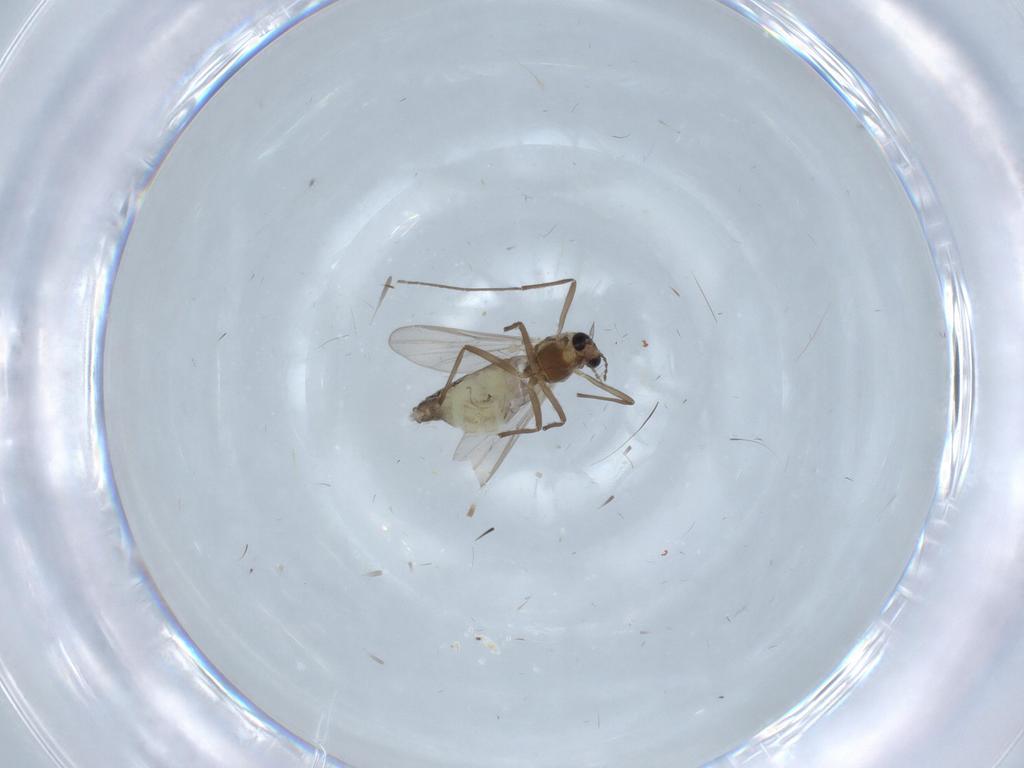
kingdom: Animalia
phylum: Arthropoda
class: Insecta
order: Diptera
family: Chironomidae
